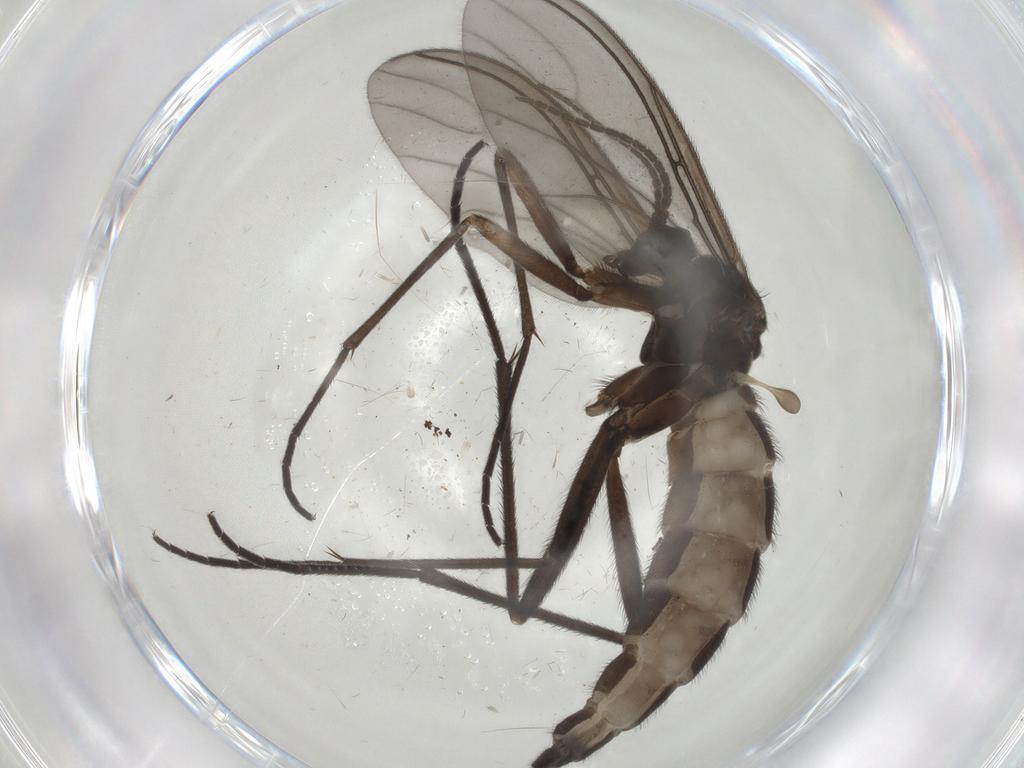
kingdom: Animalia
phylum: Arthropoda
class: Insecta
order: Diptera
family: Sciaridae
